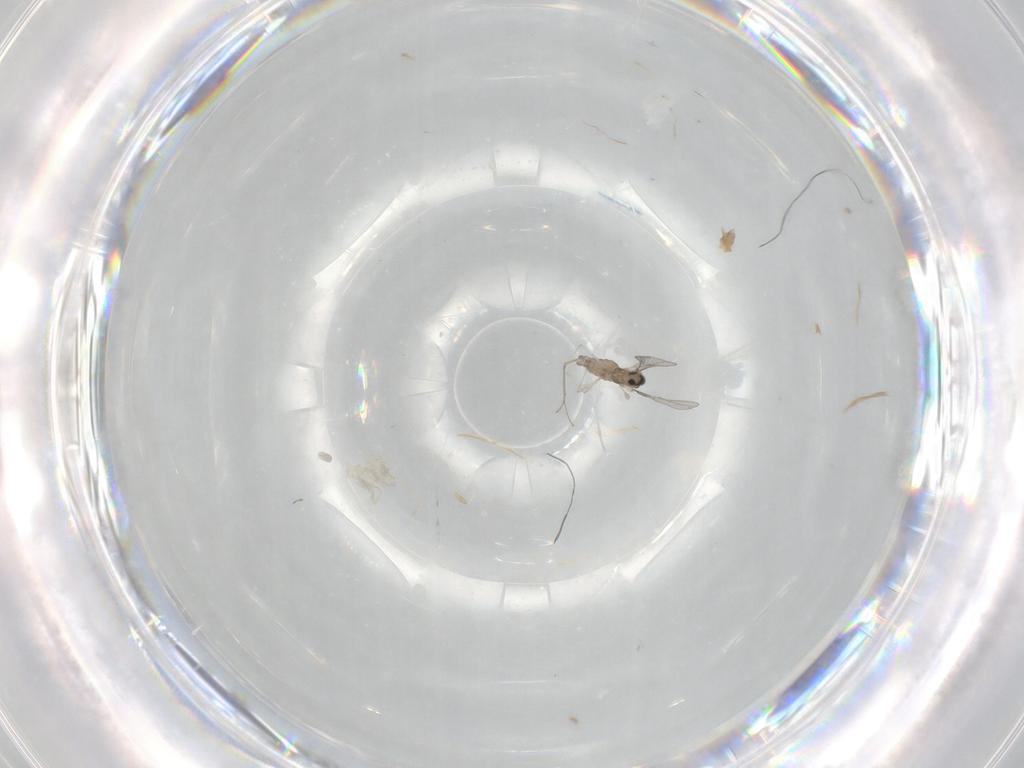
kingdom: Animalia
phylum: Arthropoda
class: Insecta
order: Diptera
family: Cecidomyiidae
